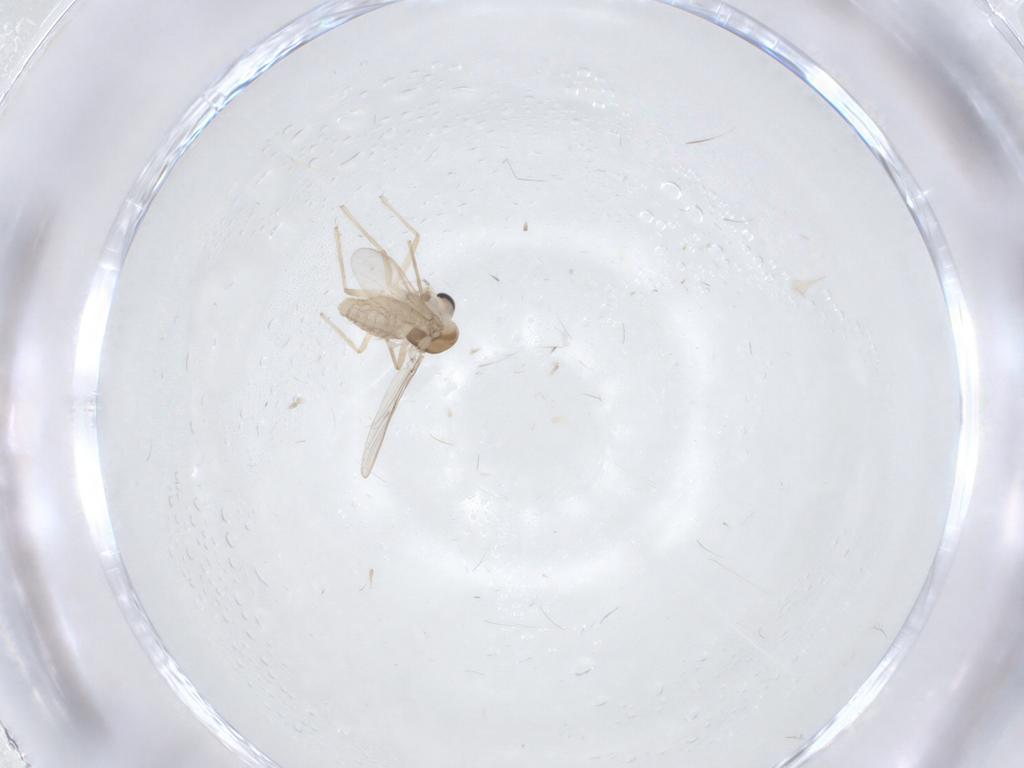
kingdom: Animalia
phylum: Arthropoda
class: Insecta
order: Diptera
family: Chironomidae
